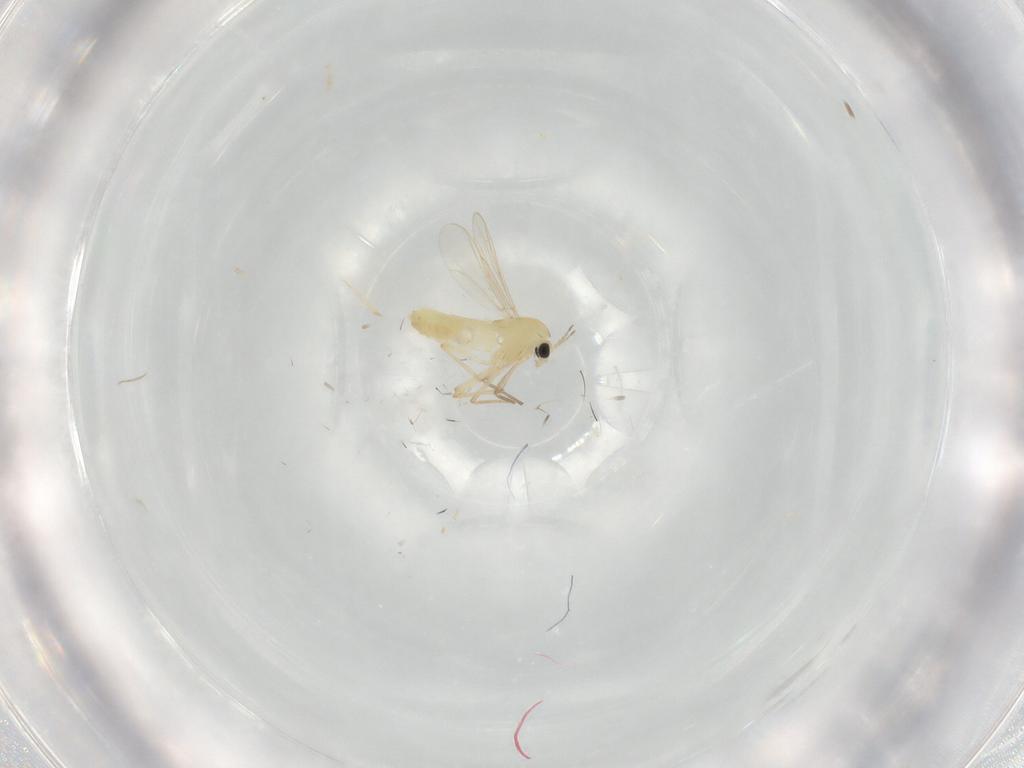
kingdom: Animalia
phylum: Arthropoda
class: Insecta
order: Diptera
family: Chironomidae
